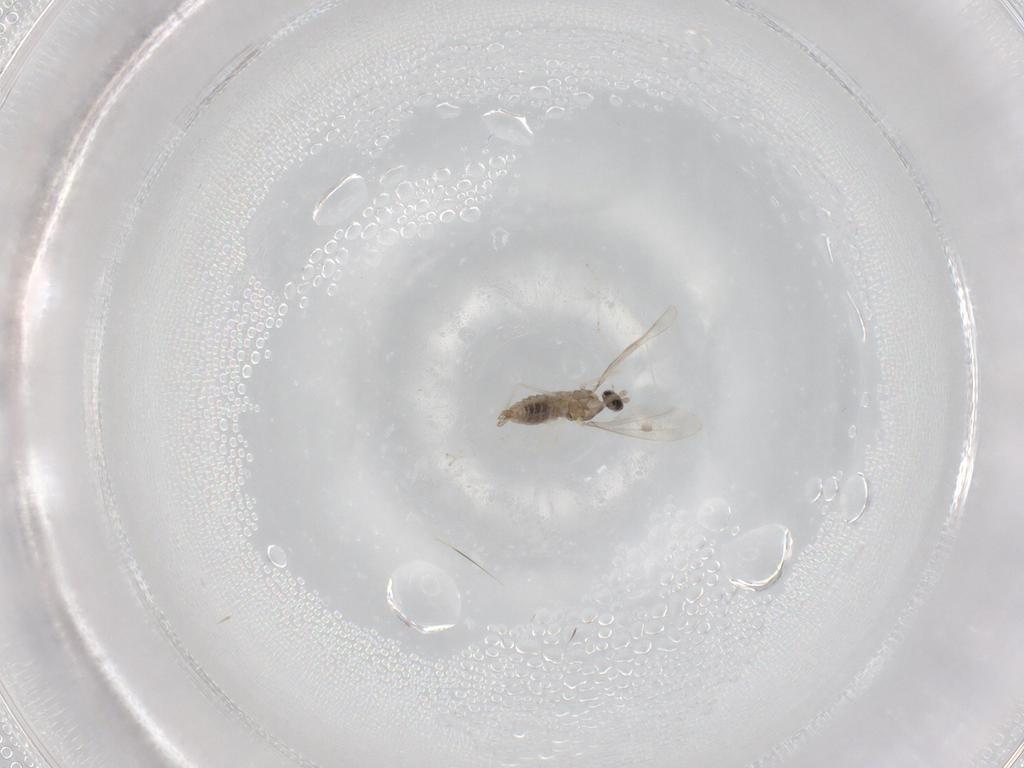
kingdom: Animalia
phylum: Arthropoda
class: Insecta
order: Diptera
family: Cecidomyiidae
